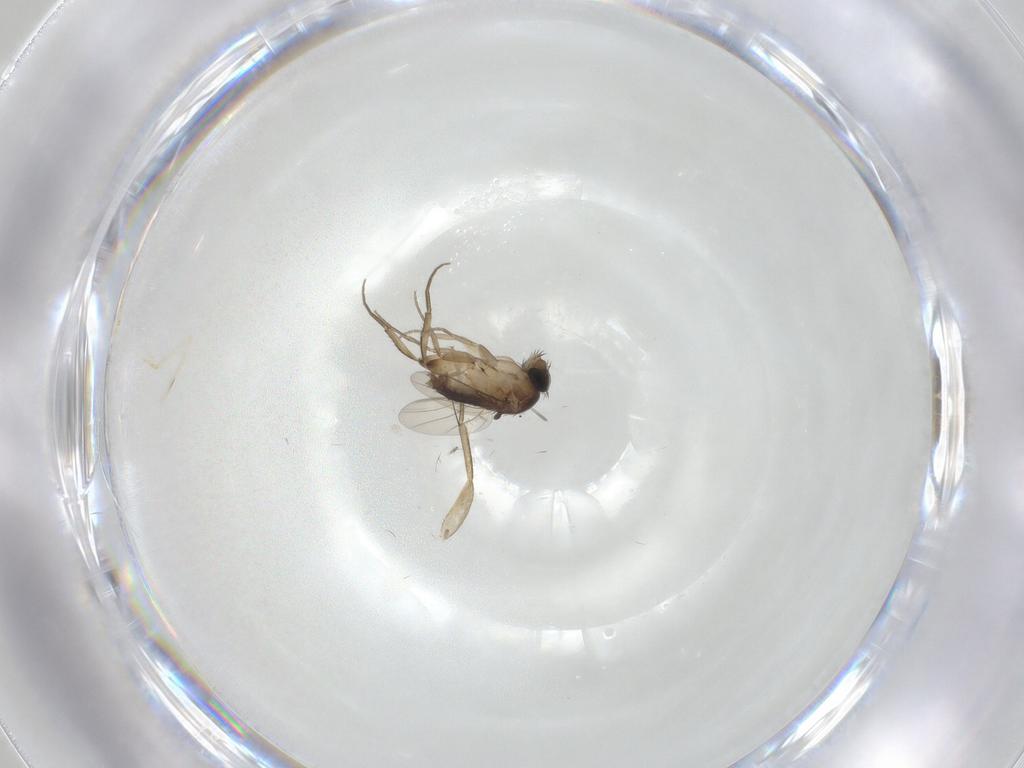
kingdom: Animalia
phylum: Arthropoda
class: Insecta
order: Diptera
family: Phoridae
